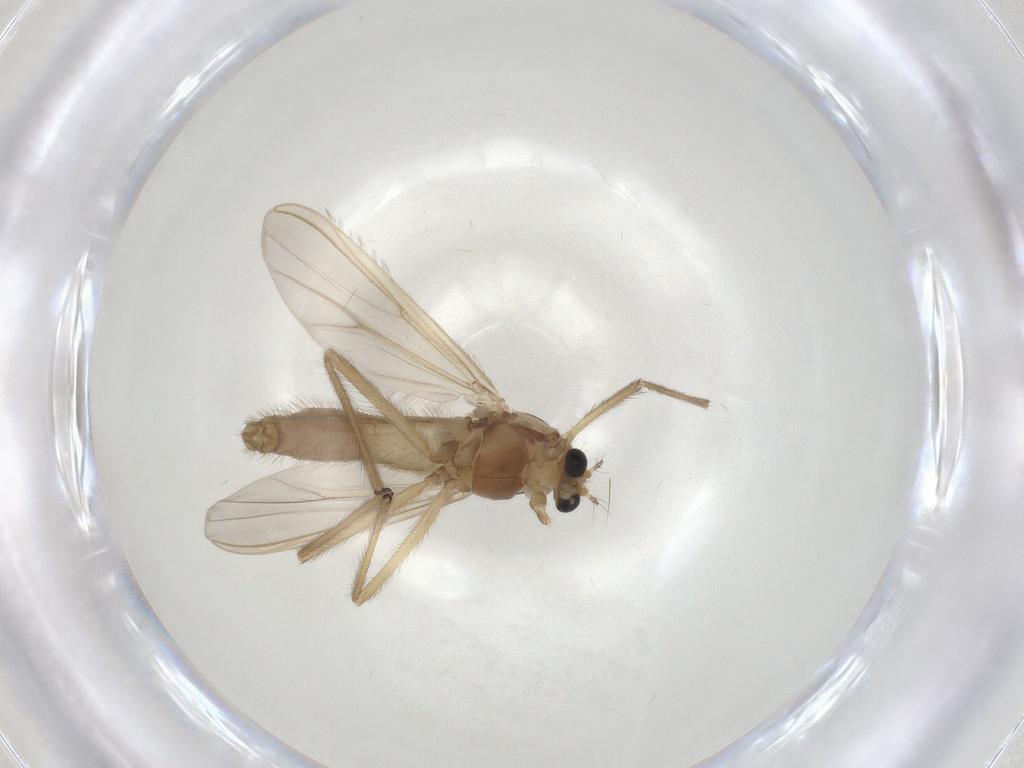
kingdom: Animalia
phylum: Arthropoda
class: Insecta
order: Diptera
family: Chironomidae
